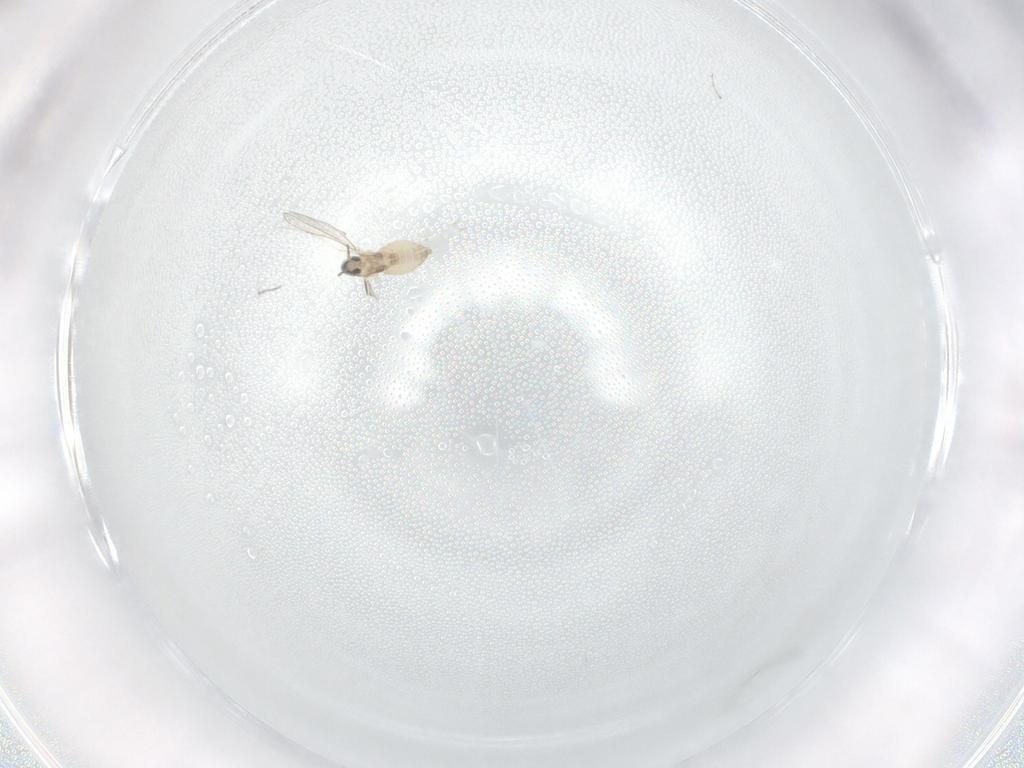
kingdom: Animalia
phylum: Arthropoda
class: Insecta
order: Diptera
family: Cecidomyiidae
